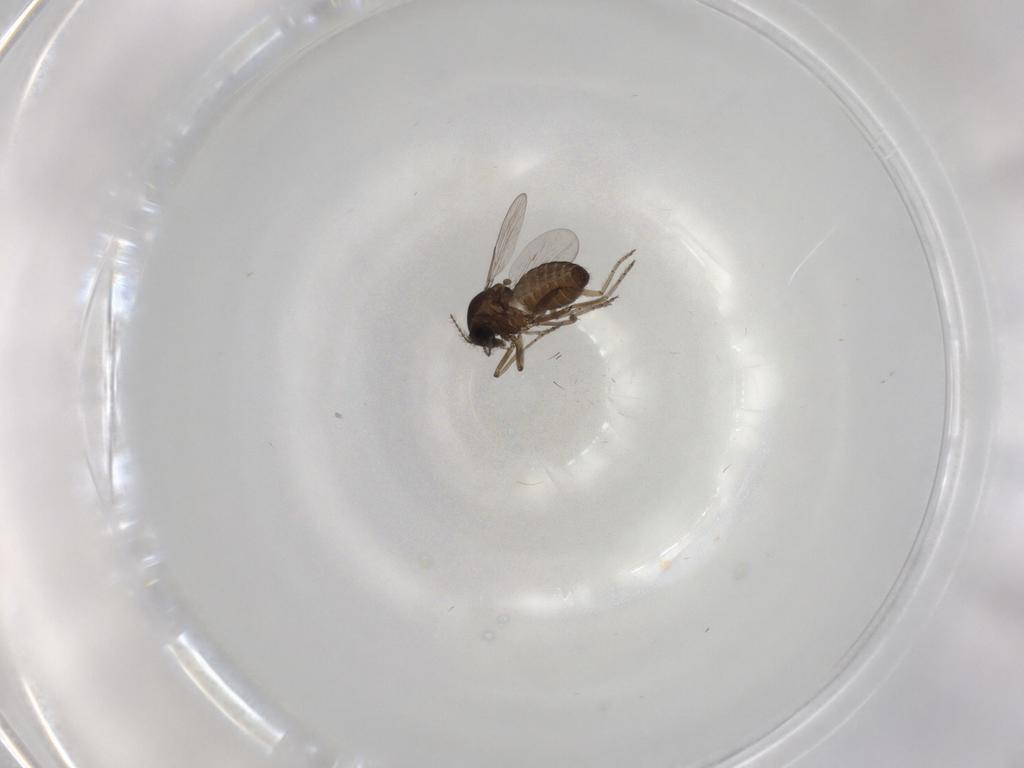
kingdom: Animalia
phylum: Arthropoda
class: Insecta
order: Diptera
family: Ceratopogonidae
